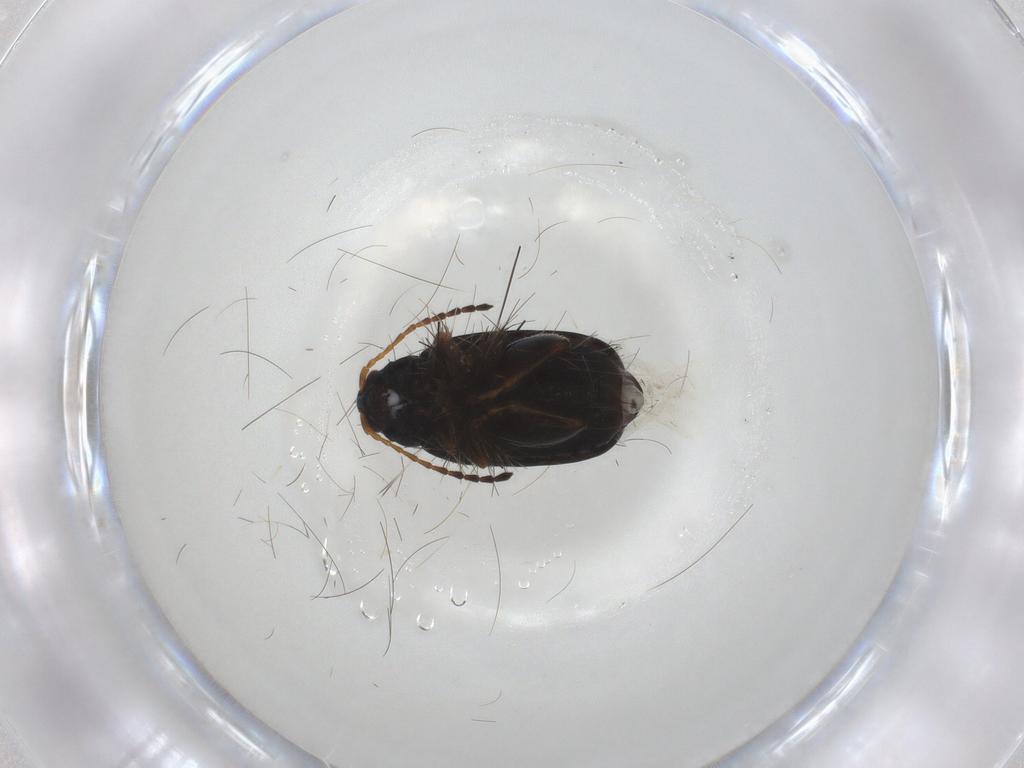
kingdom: Animalia
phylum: Arthropoda
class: Insecta
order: Coleoptera
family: Chrysomelidae
